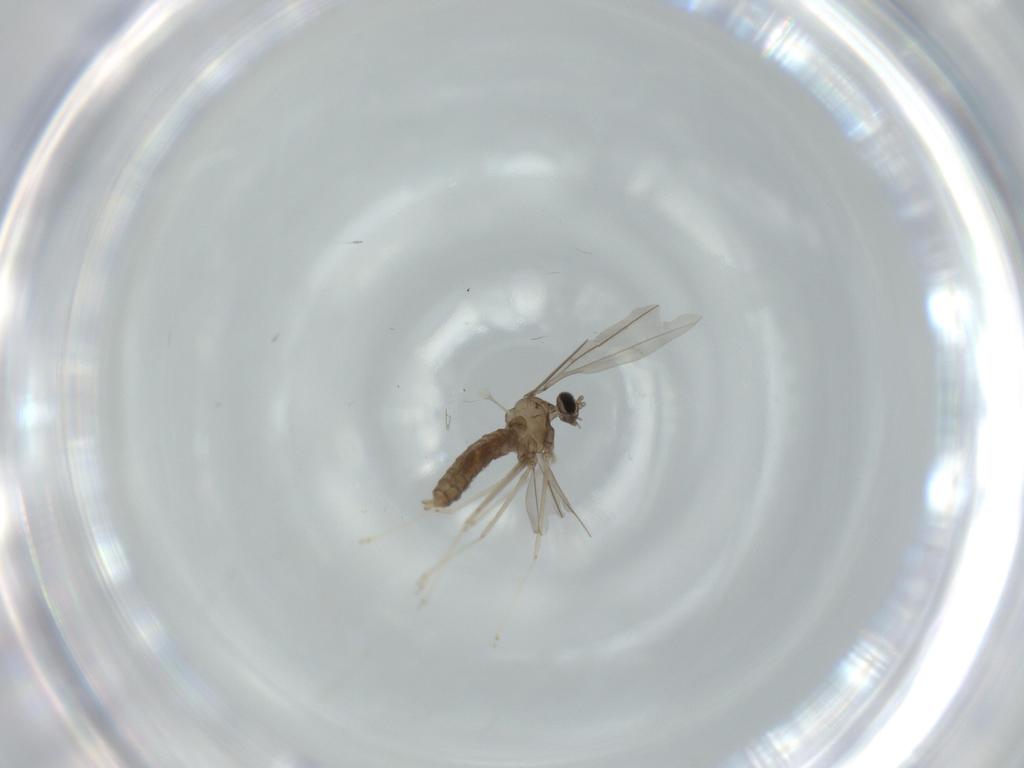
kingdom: Animalia
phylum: Arthropoda
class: Insecta
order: Diptera
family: Cecidomyiidae
